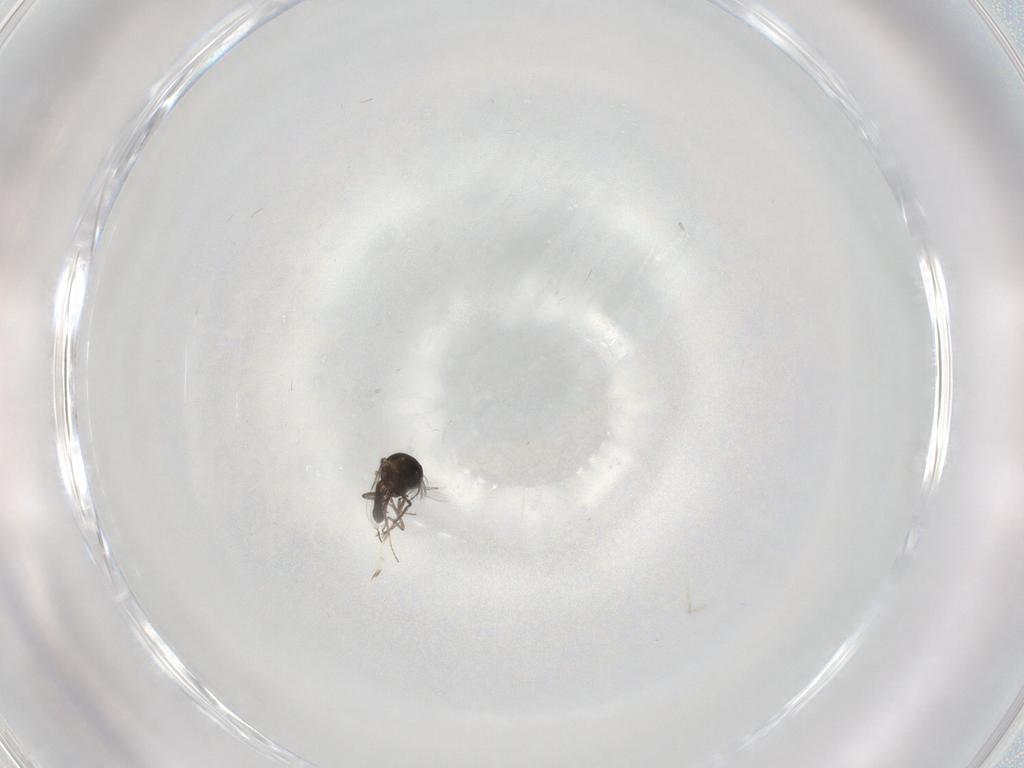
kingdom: Animalia
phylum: Arthropoda
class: Insecta
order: Diptera
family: Ceratopogonidae
